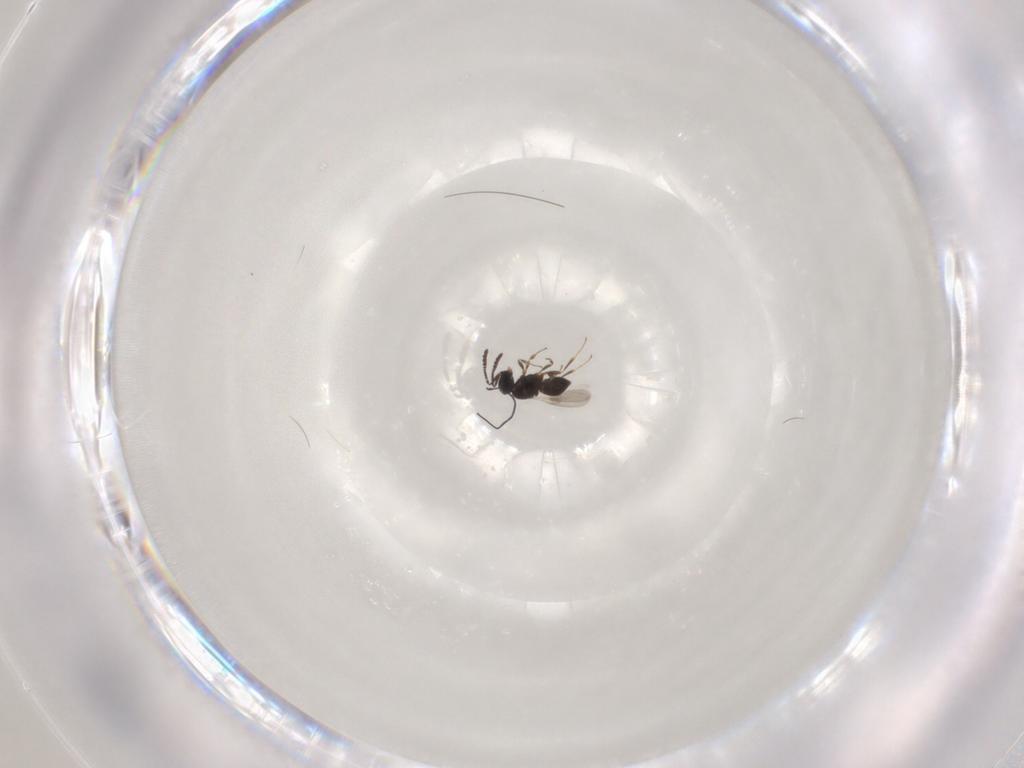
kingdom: Animalia
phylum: Arthropoda
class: Insecta
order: Hymenoptera
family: Scelionidae
